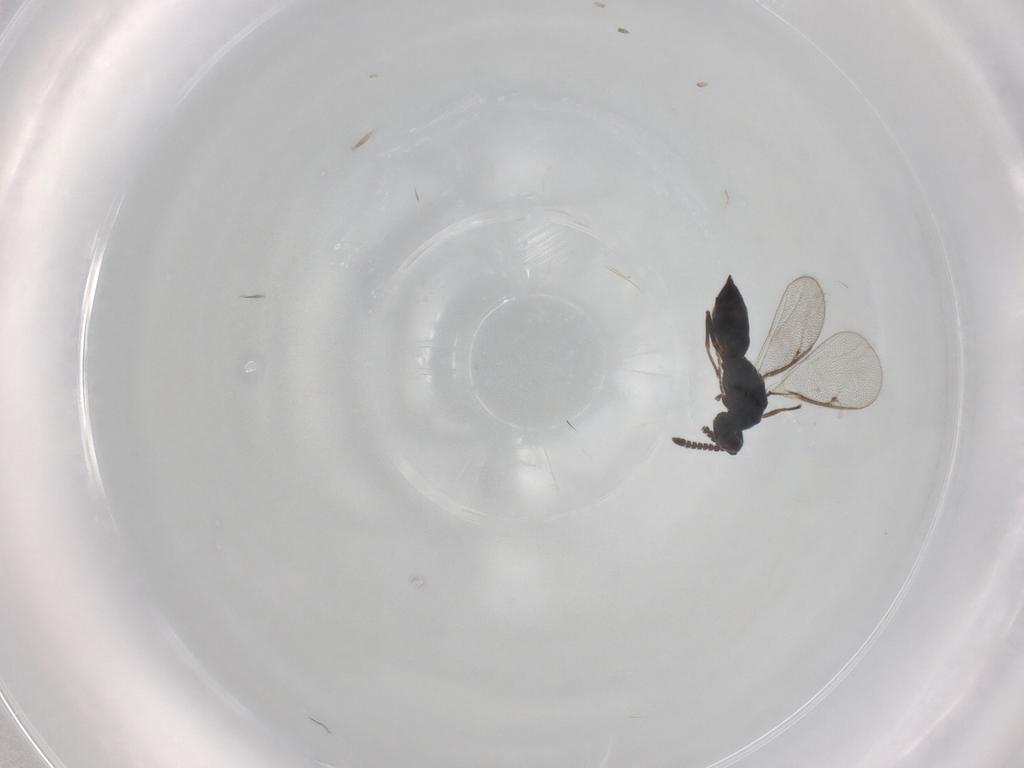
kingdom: Animalia
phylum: Arthropoda
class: Insecta
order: Hymenoptera
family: Tetracampidae
